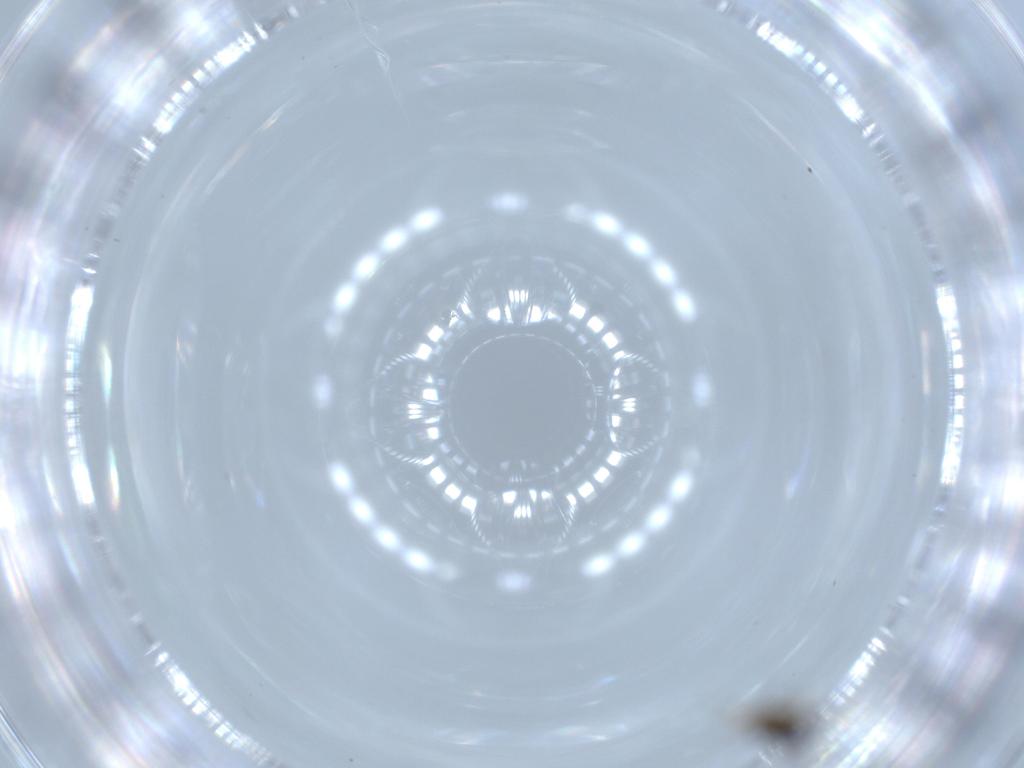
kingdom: Animalia
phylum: Arthropoda
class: Insecta
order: Hymenoptera
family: Platygastridae
